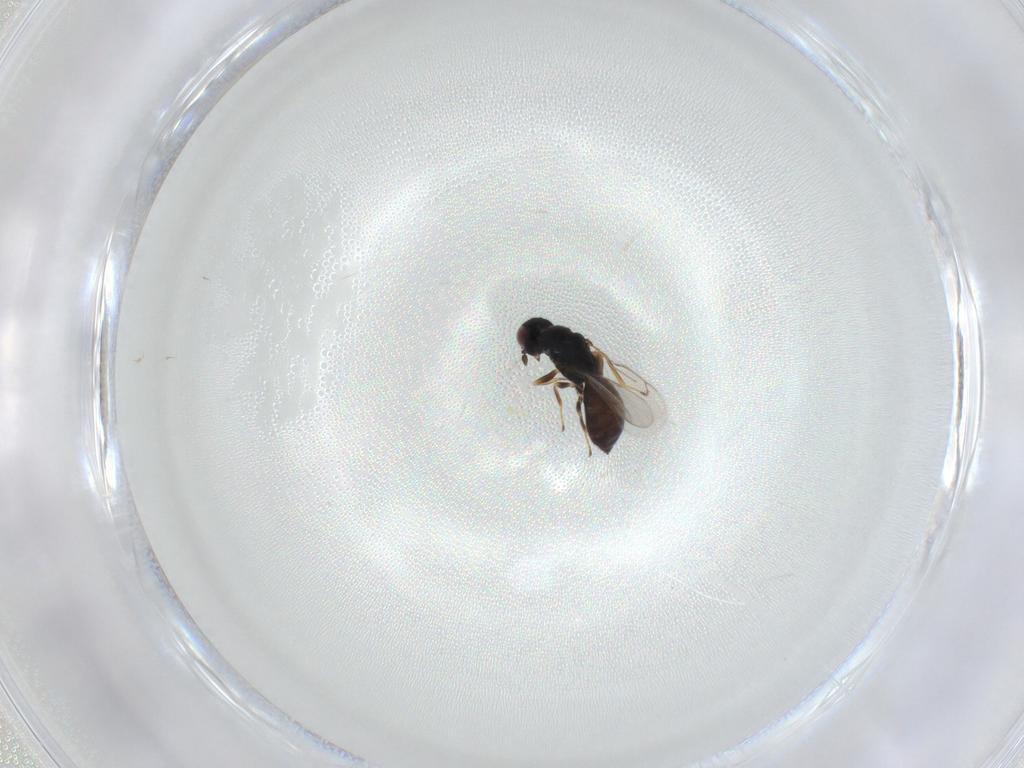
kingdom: Animalia
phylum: Arthropoda
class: Insecta
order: Hymenoptera
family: Eulophidae
